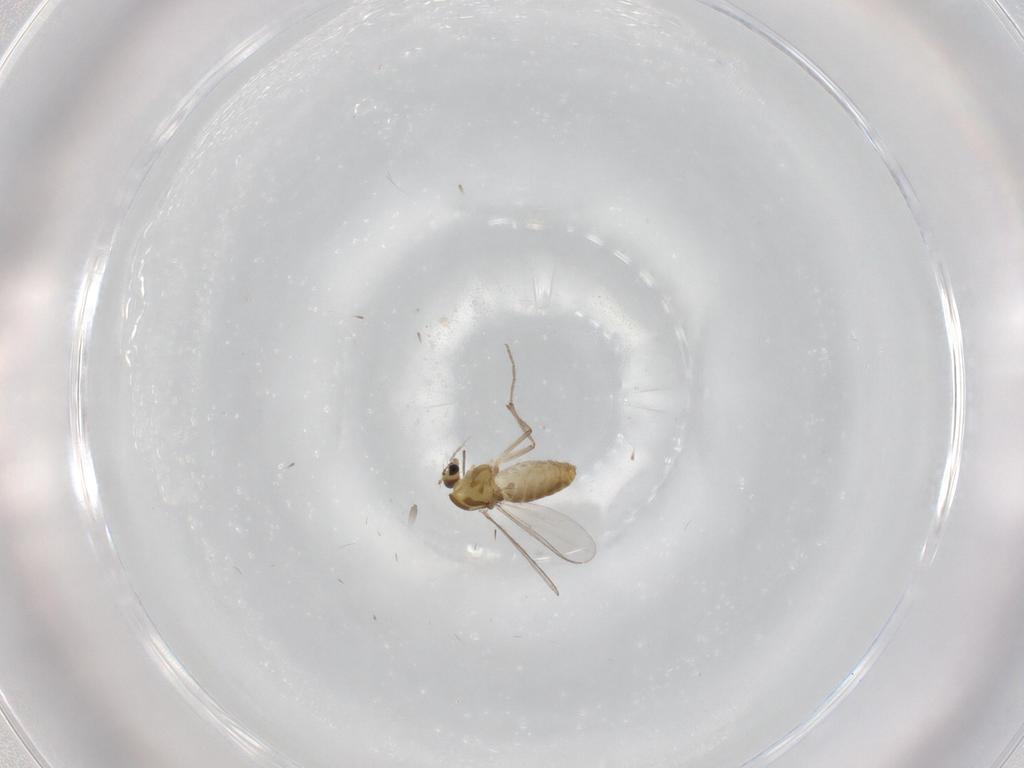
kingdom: Animalia
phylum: Arthropoda
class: Insecta
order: Diptera
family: Chironomidae
